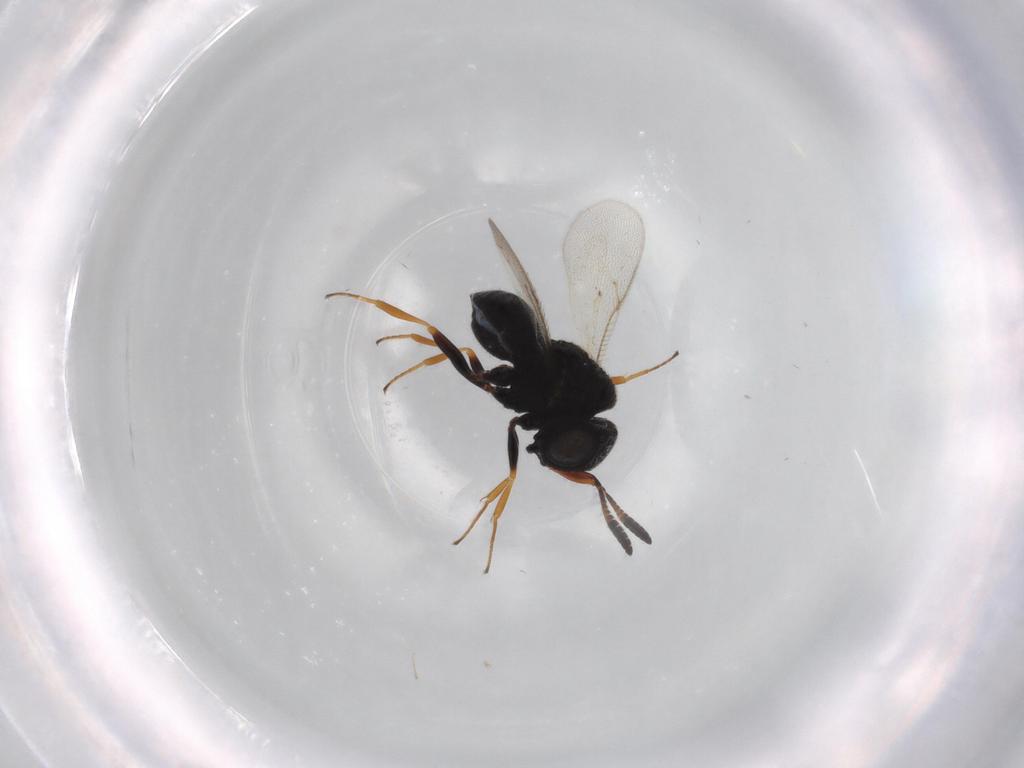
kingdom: Animalia
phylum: Arthropoda
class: Insecta
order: Hymenoptera
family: Scelionidae
